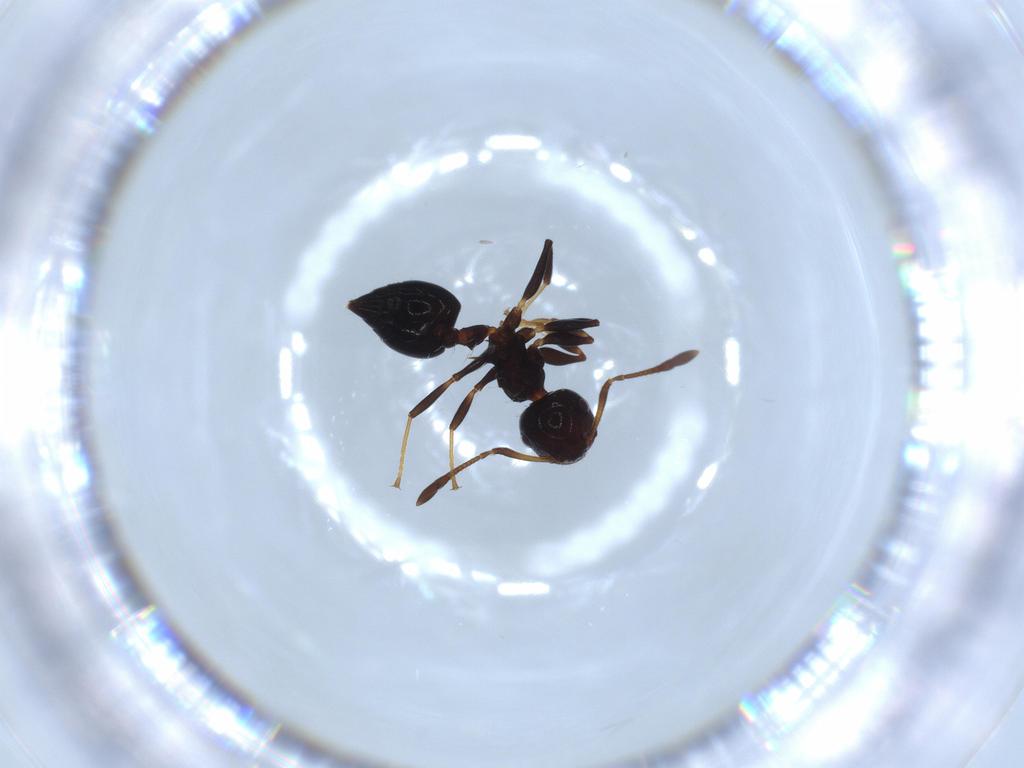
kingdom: Animalia
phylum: Arthropoda
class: Insecta
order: Hymenoptera
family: Formicidae
